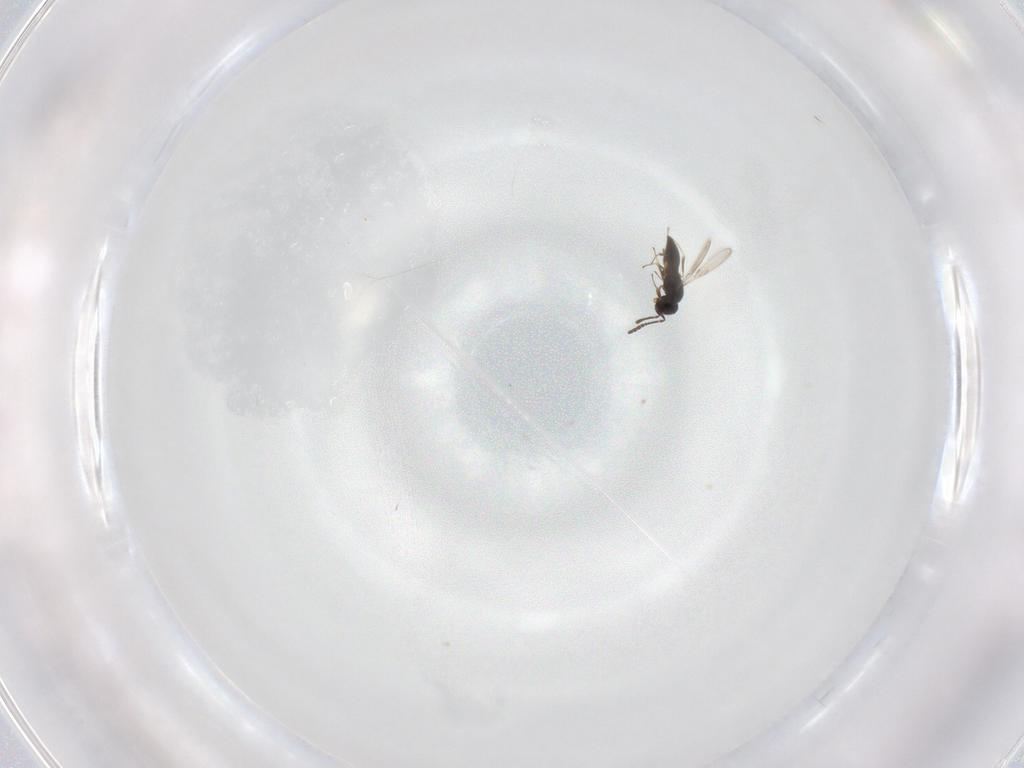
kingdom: Animalia
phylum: Arthropoda
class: Insecta
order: Hymenoptera
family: Scelionidae
